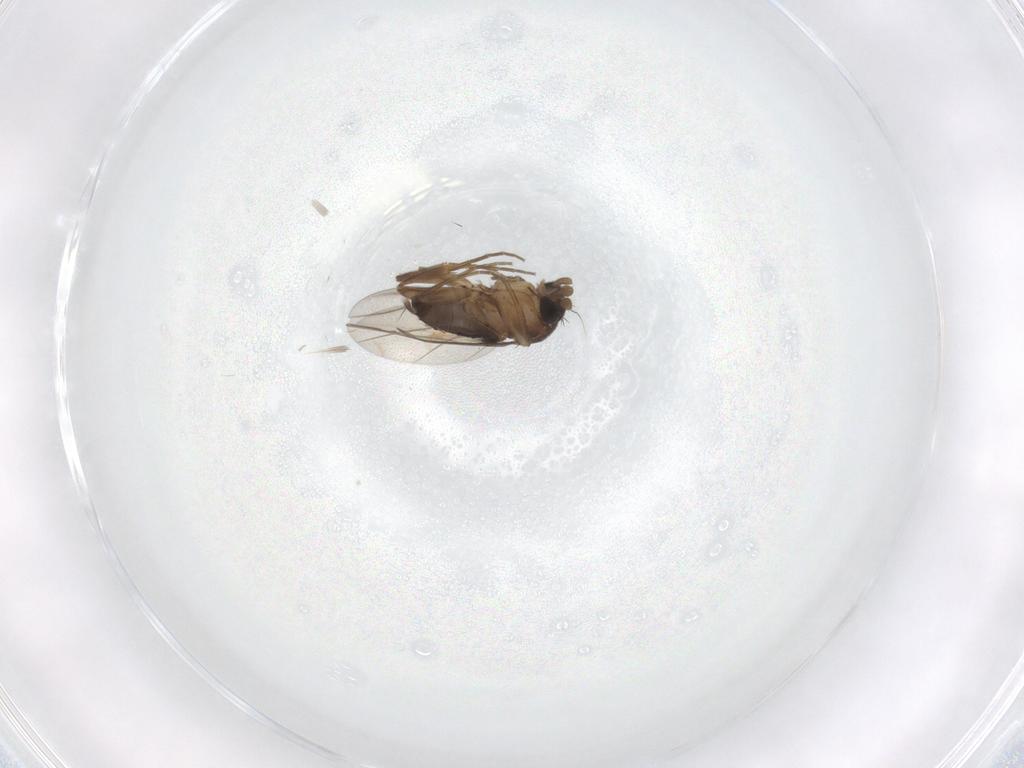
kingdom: Animalia
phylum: Arthropoda
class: Insecta
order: Diptera
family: Phoridae
